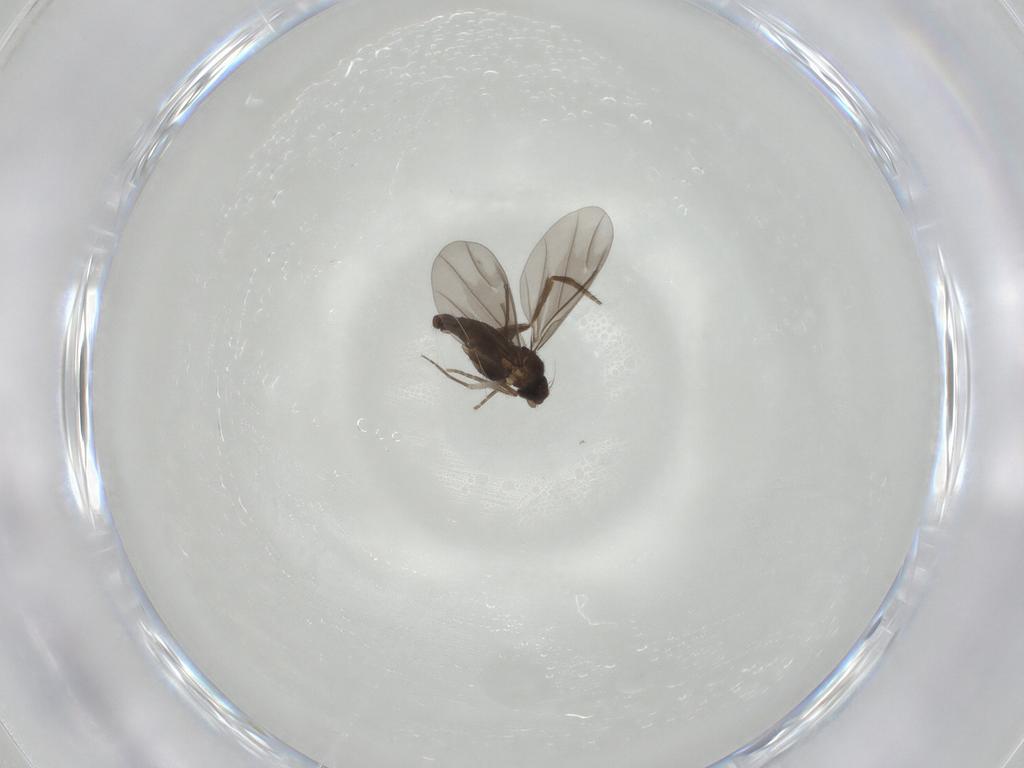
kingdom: Animalia
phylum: Arthropoda
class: Insecta
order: Diptera
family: Phoridae
